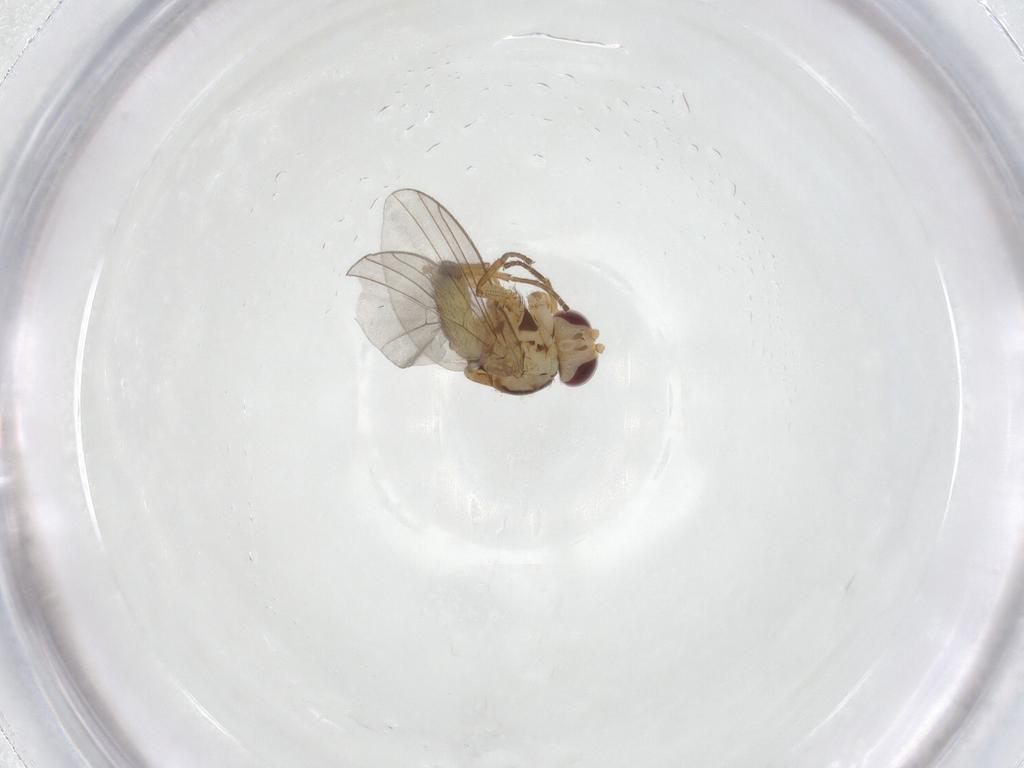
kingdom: Animalia
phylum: Arthropoda
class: Insecta
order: Diptera
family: Agromyzidae
